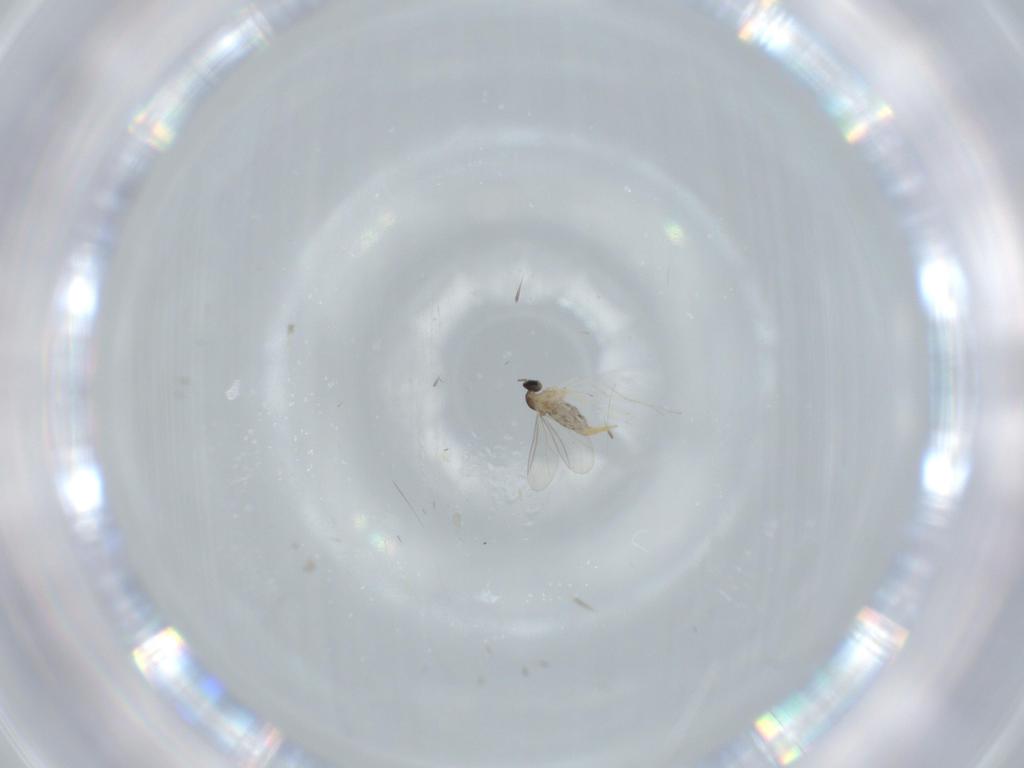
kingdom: Animalia
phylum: Arthropoda
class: Insecta
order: Diptera
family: Cecidomyiidae
